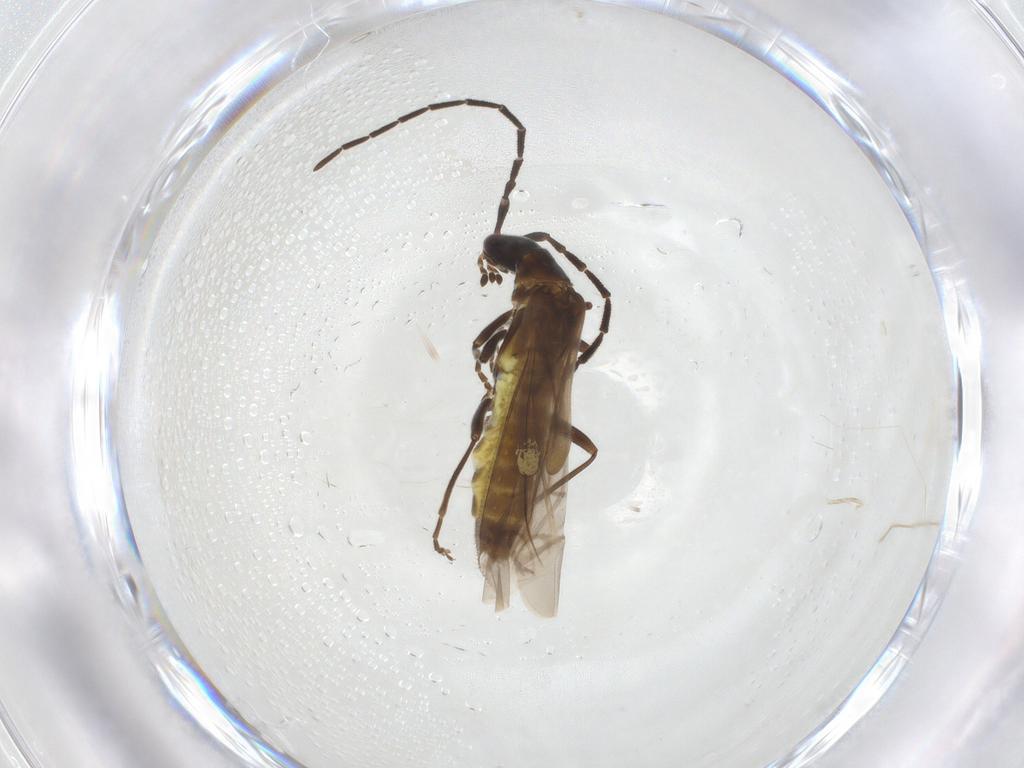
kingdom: Animalia
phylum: Arthropoda
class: Insecta
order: Coleoptera
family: Cantharidae
